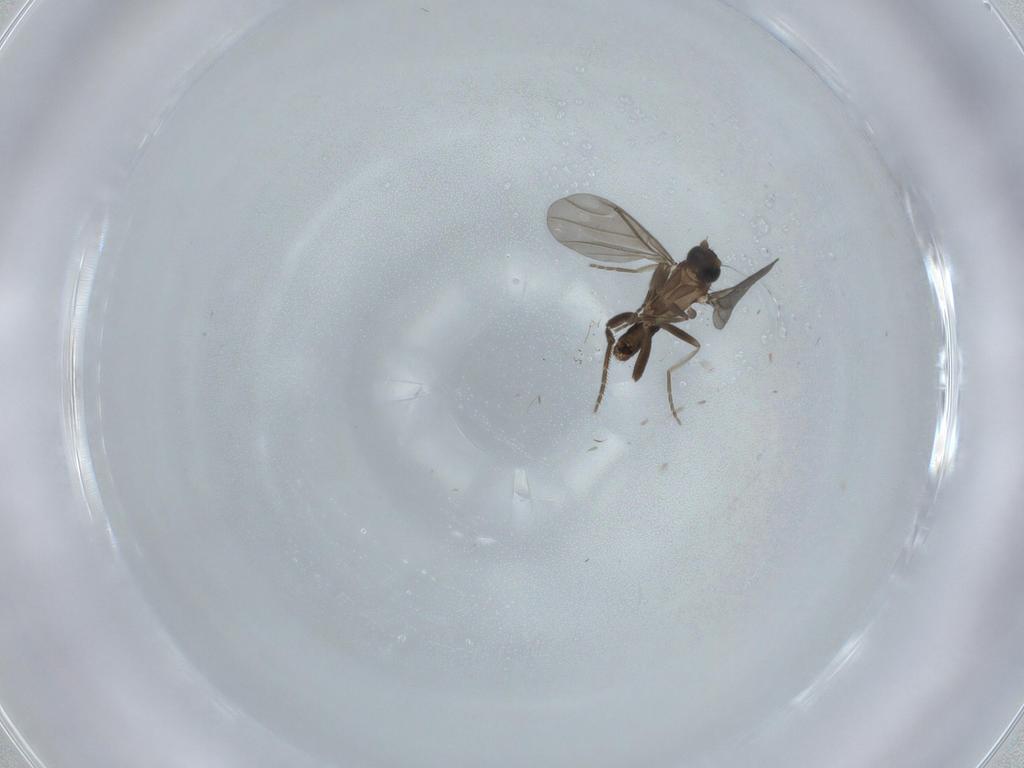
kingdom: Animalia
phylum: Arthropoda
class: Insecta
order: Diptera
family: Phoridae
